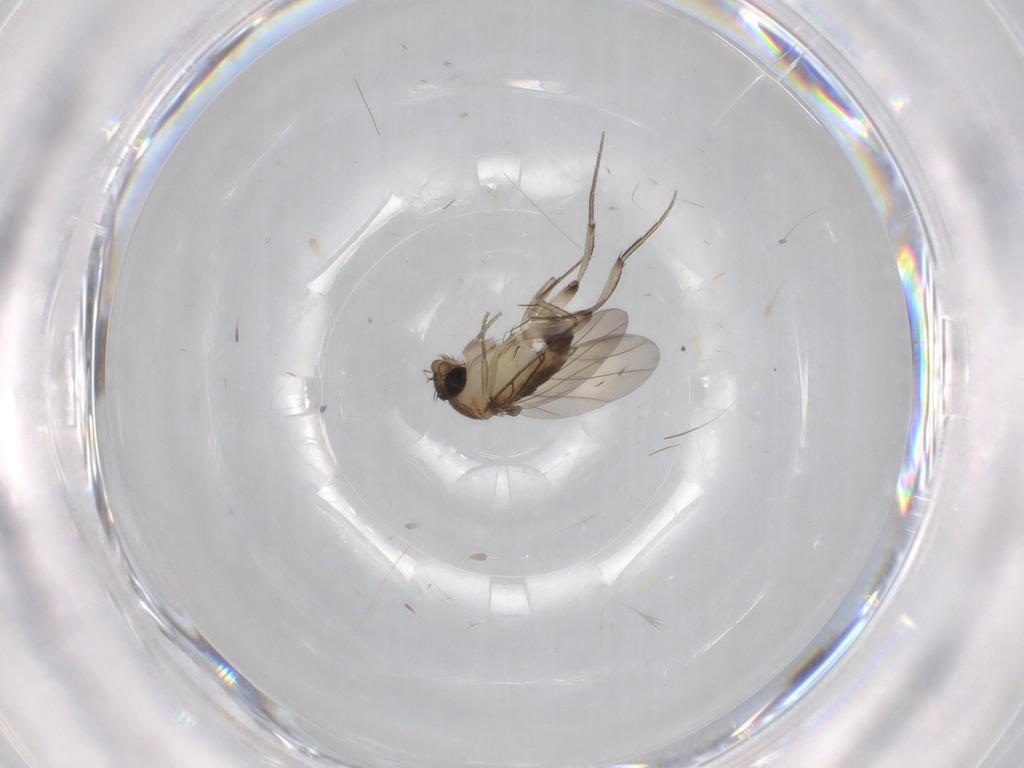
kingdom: Animalia
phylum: Arthropoda
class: Insecta
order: Diptera
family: Phoridae
